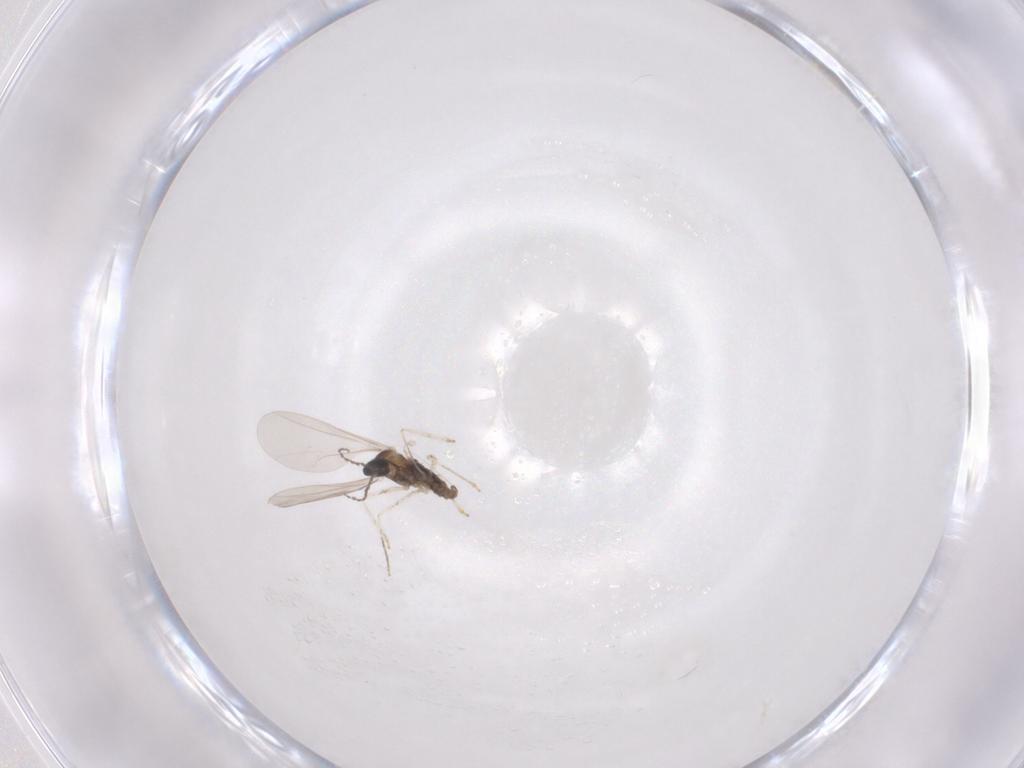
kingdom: Animalia
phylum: Arthropoda
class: Insecta
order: Diptera
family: Cecidomyiidae
